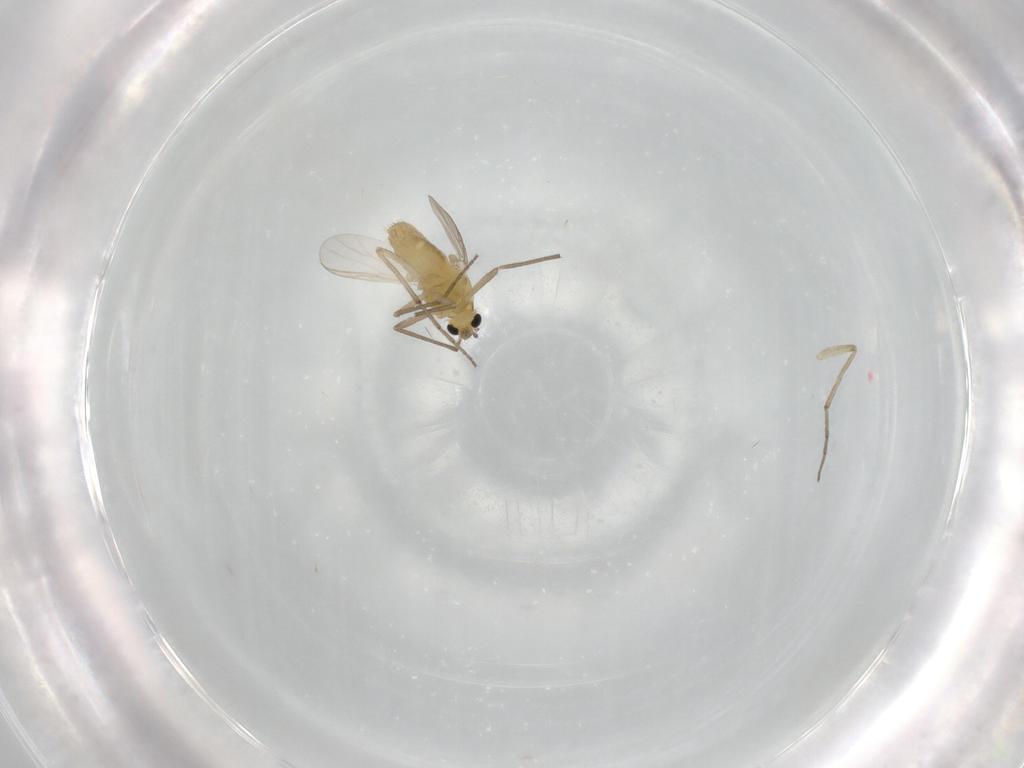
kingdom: Animalia
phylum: Arthropoda
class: Insecta
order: Diptera
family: Chironomidae
